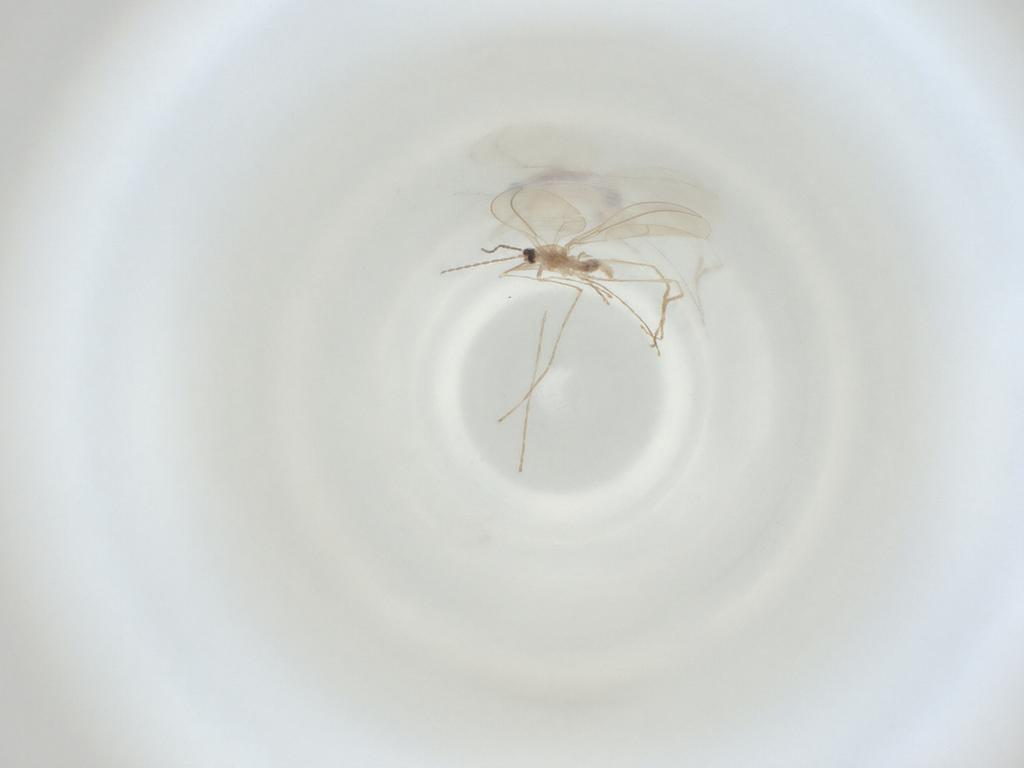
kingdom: Animalia
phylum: Arthropoda
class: Insecta
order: Diptera
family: Cecidomyiidae
